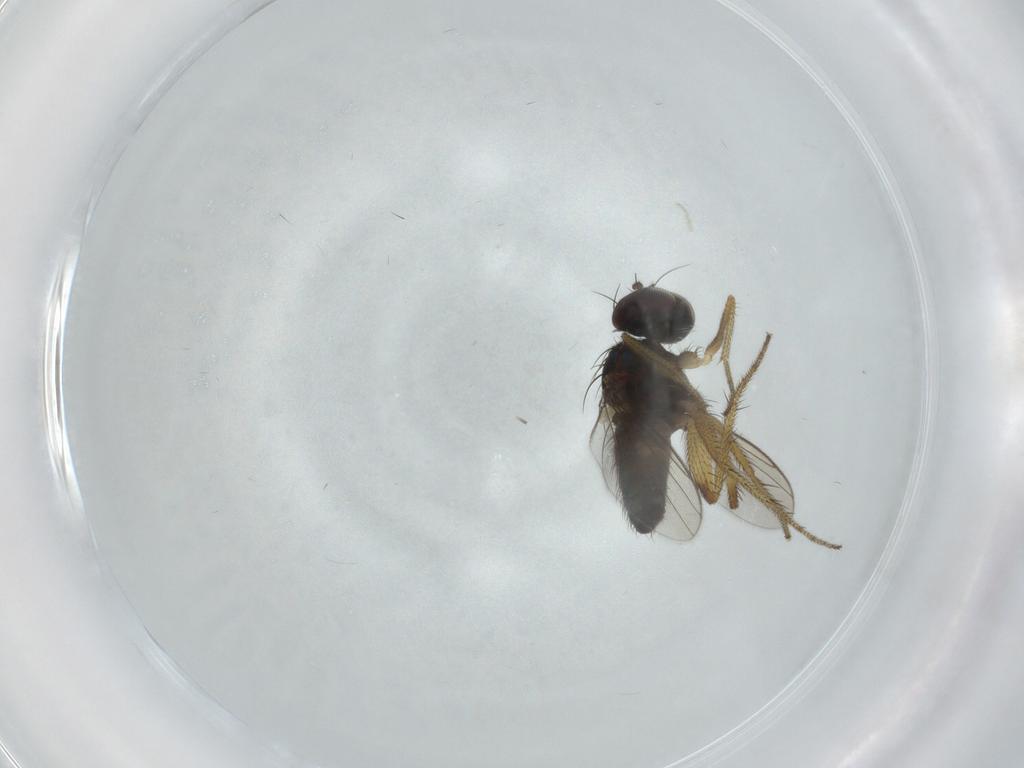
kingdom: Animalia
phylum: Arthropoda
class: Insecta
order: Diptera
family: Dolichopodidae
